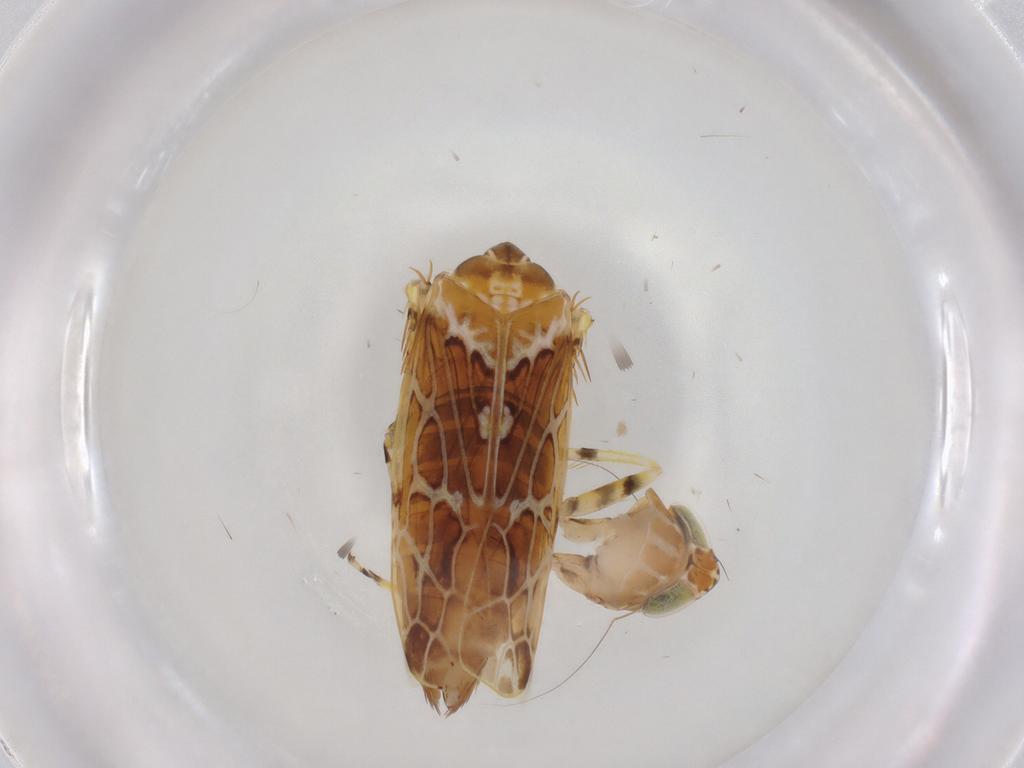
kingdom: Animalia
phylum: Arthropoda
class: Insecta
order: Hemiptera
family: Cicadellidae
